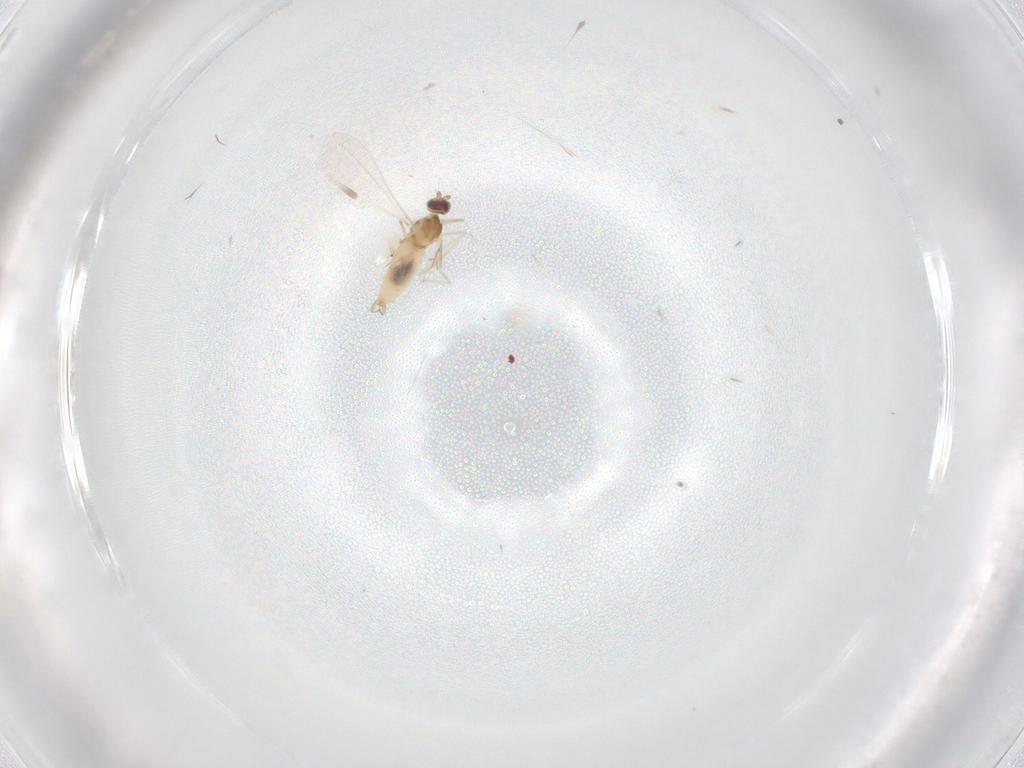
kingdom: Animalia
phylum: Arthropoda
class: Insecta
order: Diptera
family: Cecidomyiidae
